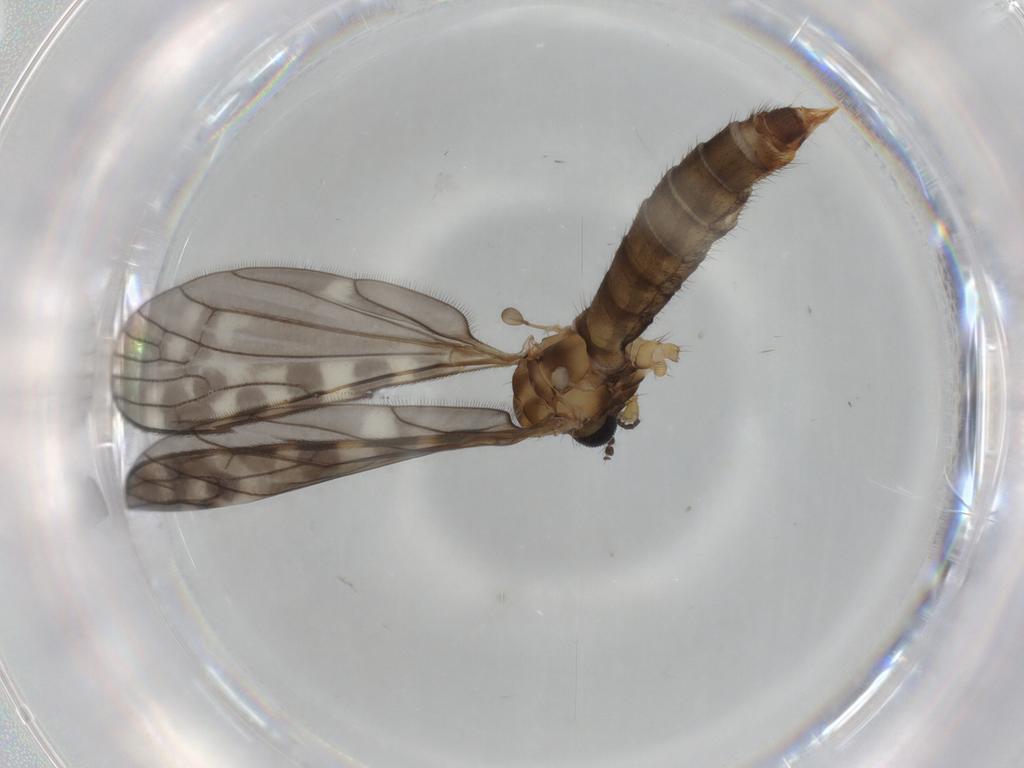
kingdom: Animalia
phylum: Arthropoda
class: Insecta
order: Diptera
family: Limoniidae
